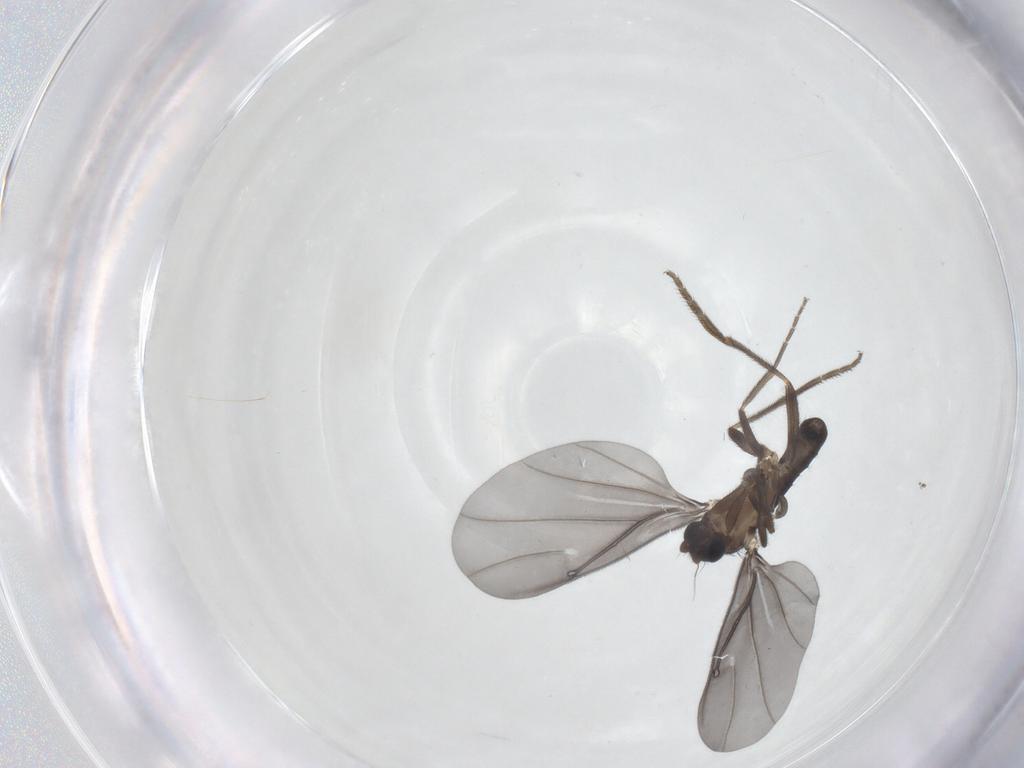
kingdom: Animalia
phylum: Arthropoda
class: Insecta
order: Diptera
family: Phoridae
